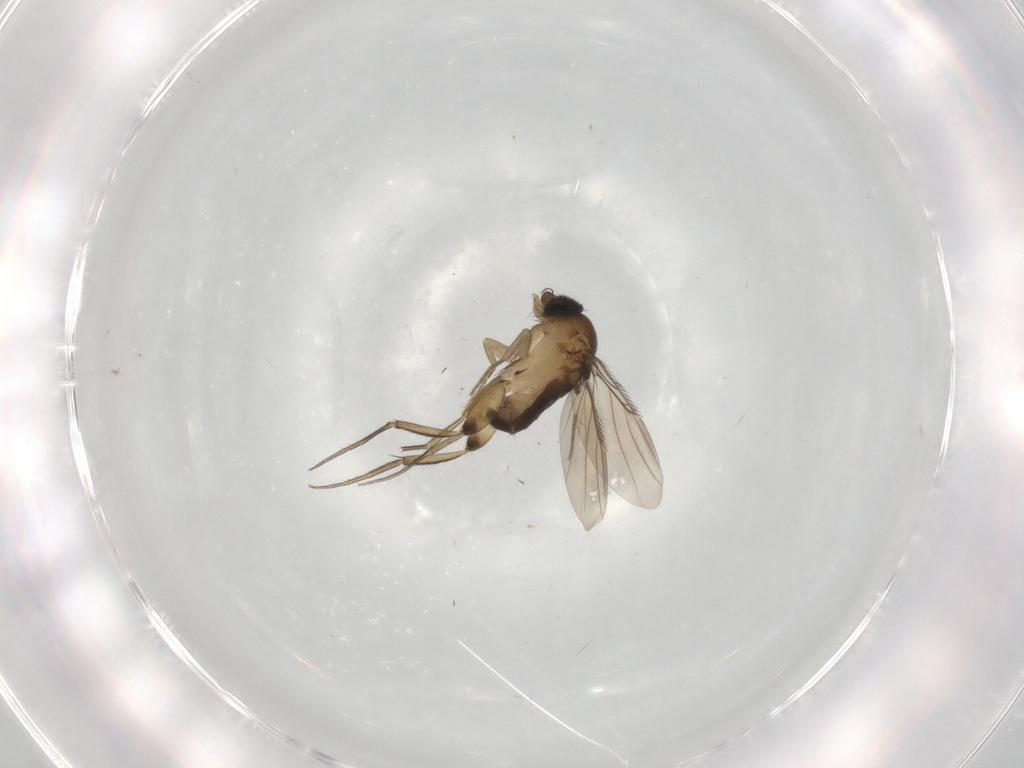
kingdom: Animalia
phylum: Arthropoda
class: Insecta
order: Diptera
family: Phoridae
